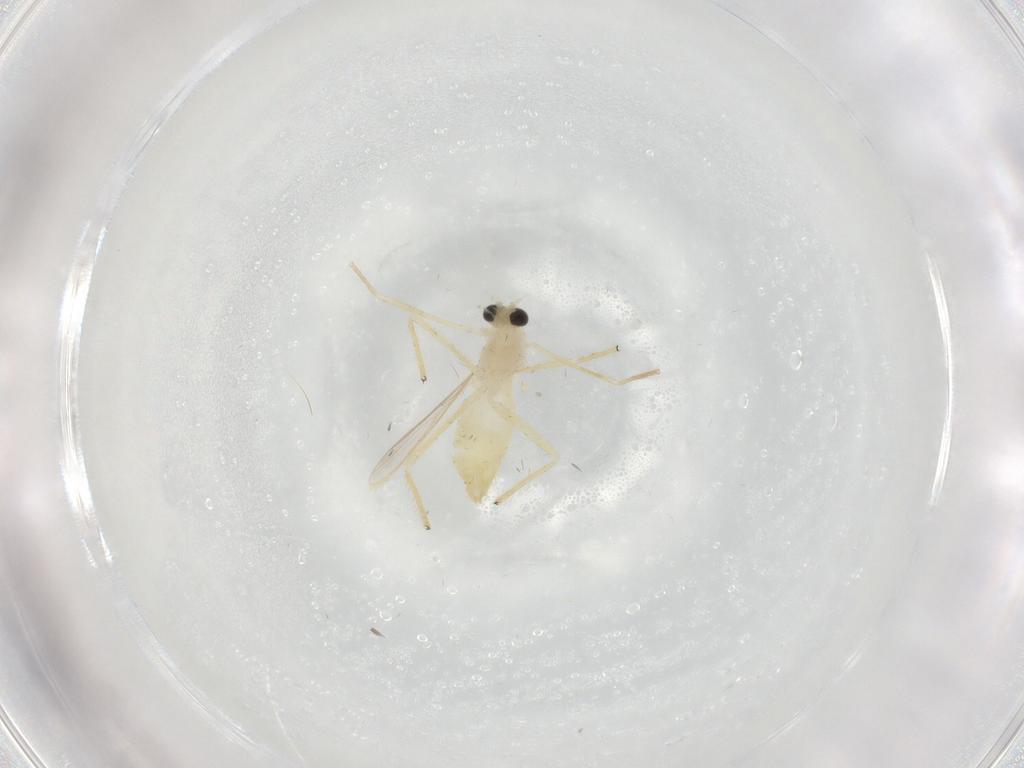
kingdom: Animalia
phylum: Arthropoda
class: Insecta
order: Diptera
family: Chironomidae
